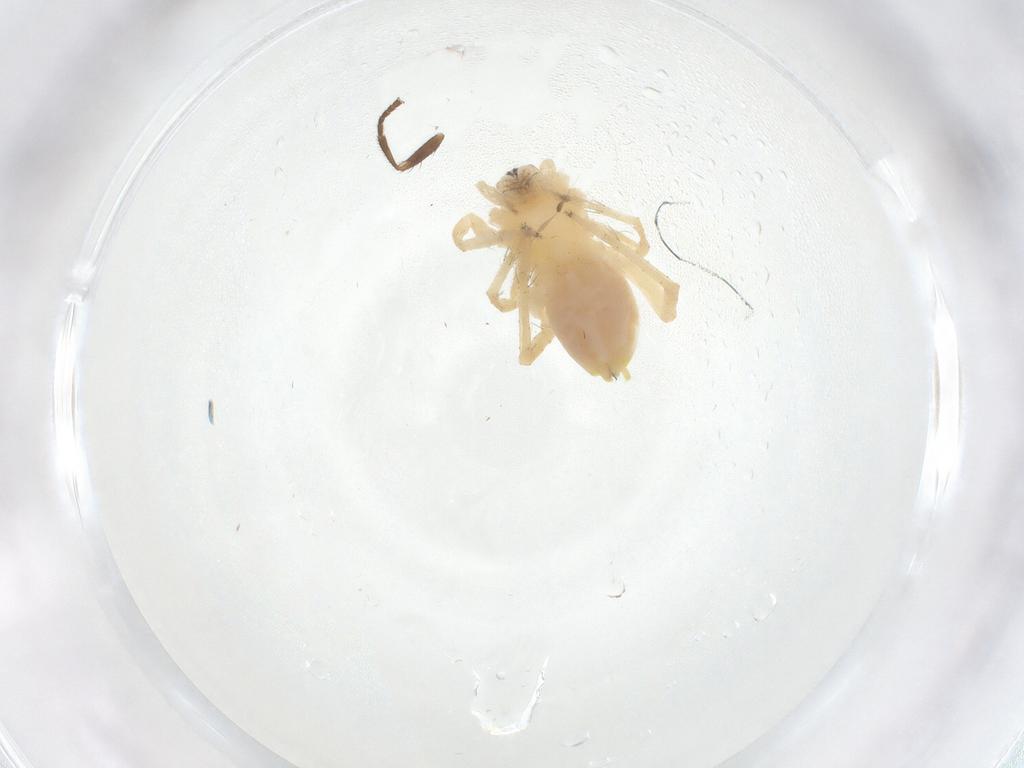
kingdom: Animalia
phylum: Arthropoda
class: Arachnida
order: Araneae
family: Anyphaenidae
